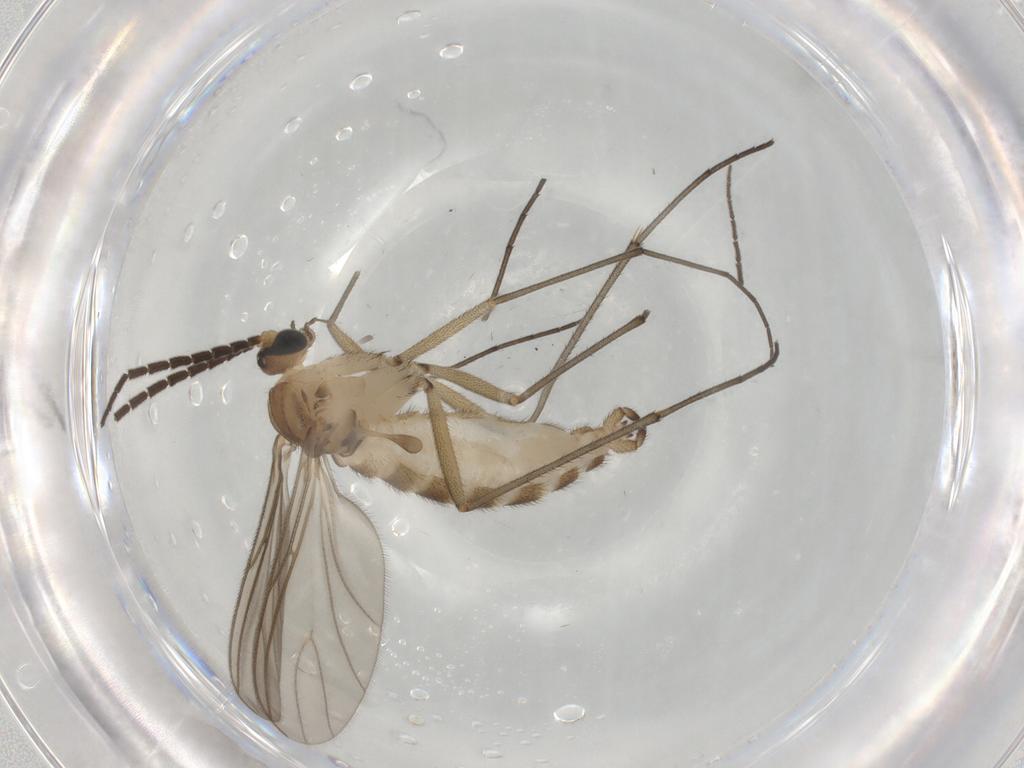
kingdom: Animalia
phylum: Arthropoda
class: Insecta
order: Diptera
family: Sciaridae
